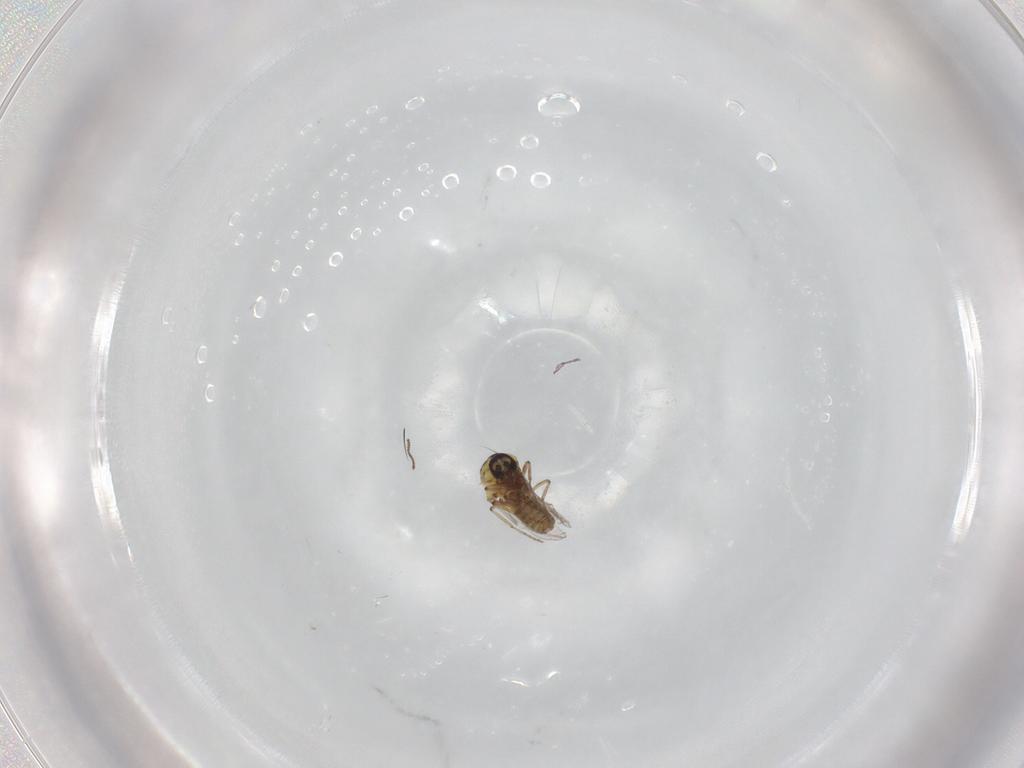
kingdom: Animalia
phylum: Arthropoda
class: Insecta
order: Diptera
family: Ceratopogonidae
